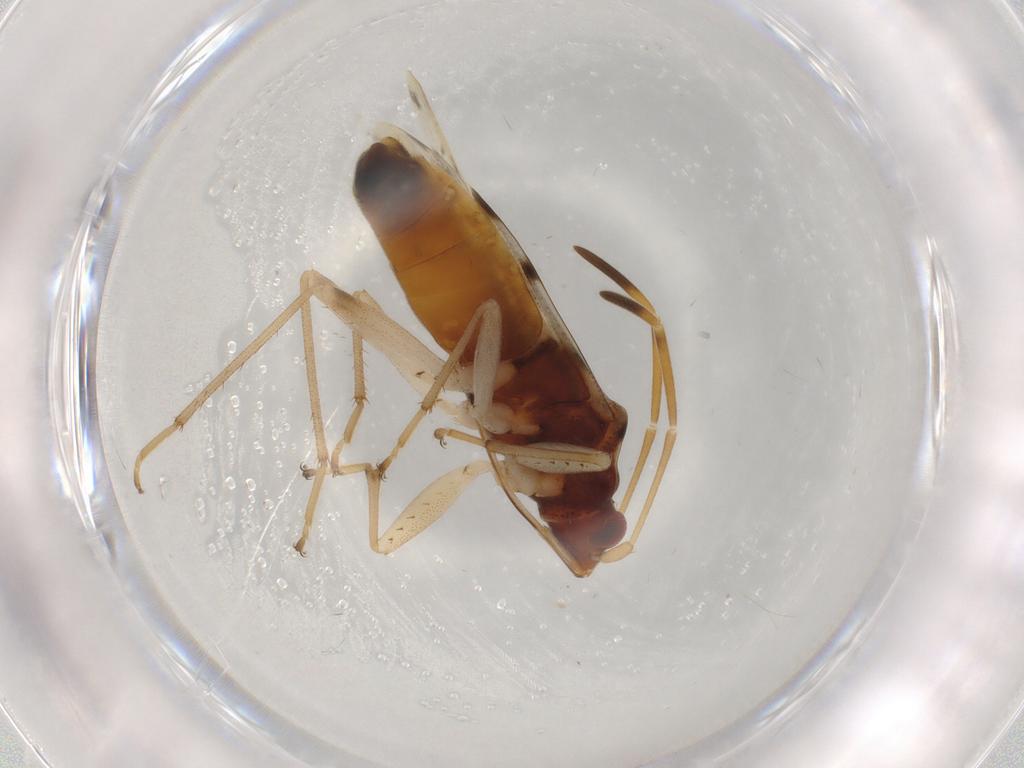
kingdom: Animalia
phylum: Arthropoda
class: Insecta
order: Hemiptera
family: Rhyparochromidae
